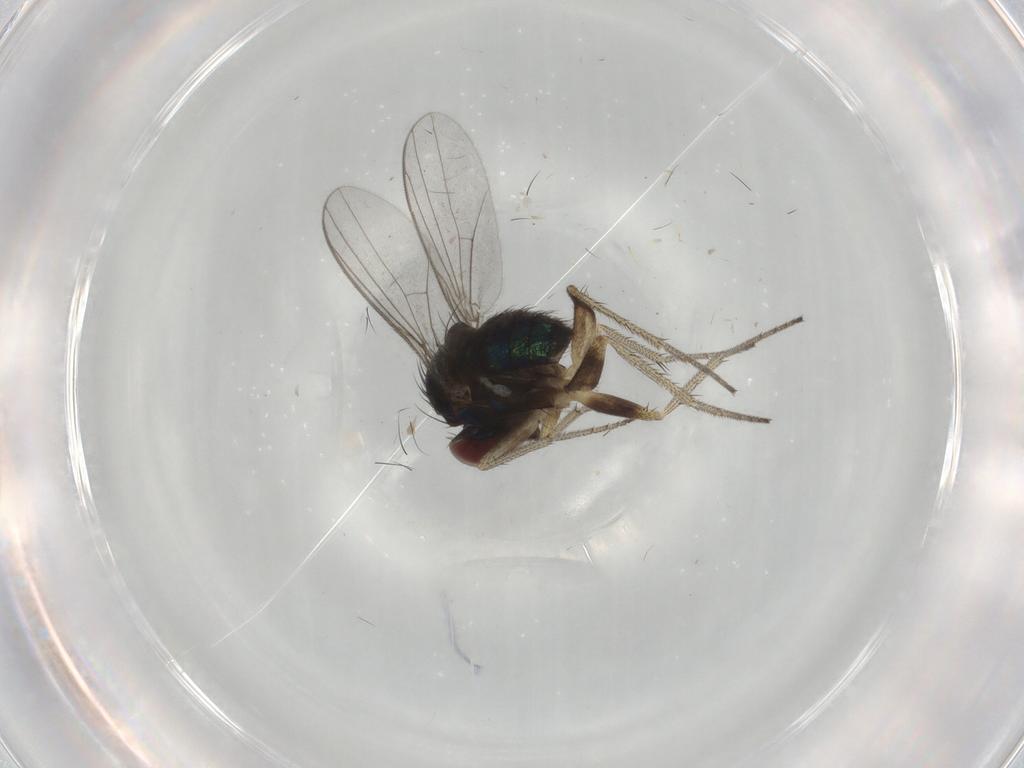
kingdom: Animalia
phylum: Arthropoda
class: Insecta
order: Diptera
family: Dolichopodidae
